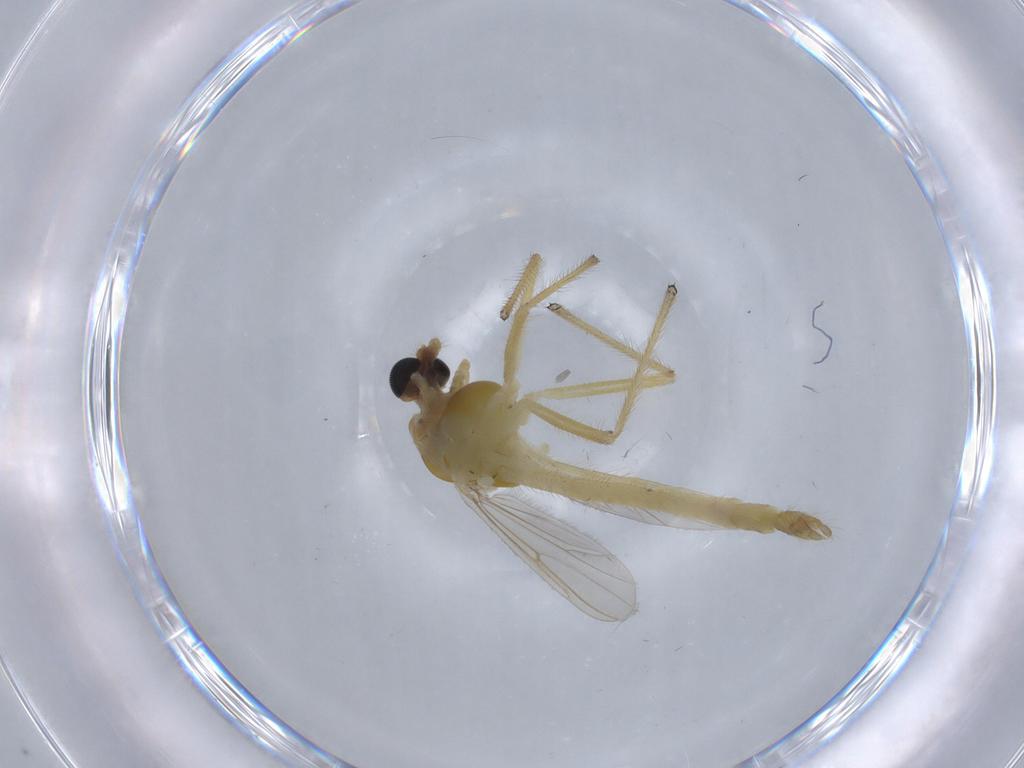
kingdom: Animalia
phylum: Arthropoda
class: Insecta
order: Diptera
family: Chironomidae
